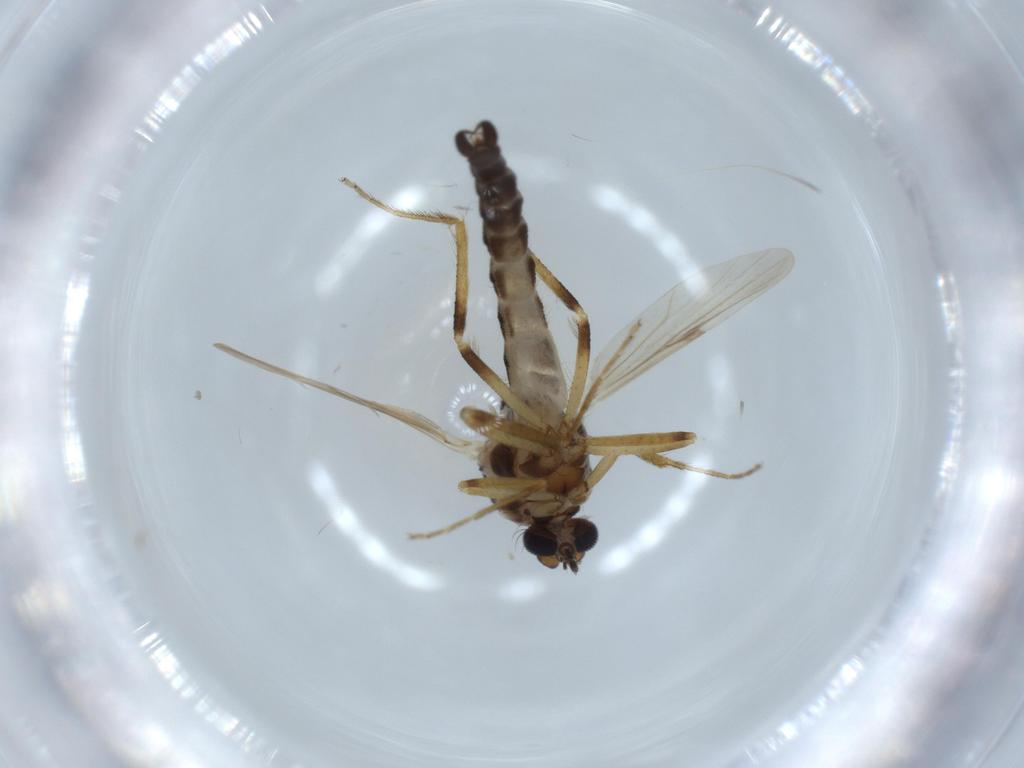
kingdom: Animalia
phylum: Arthropoda
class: Insecta
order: Diptera
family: Ceratopogonidae
